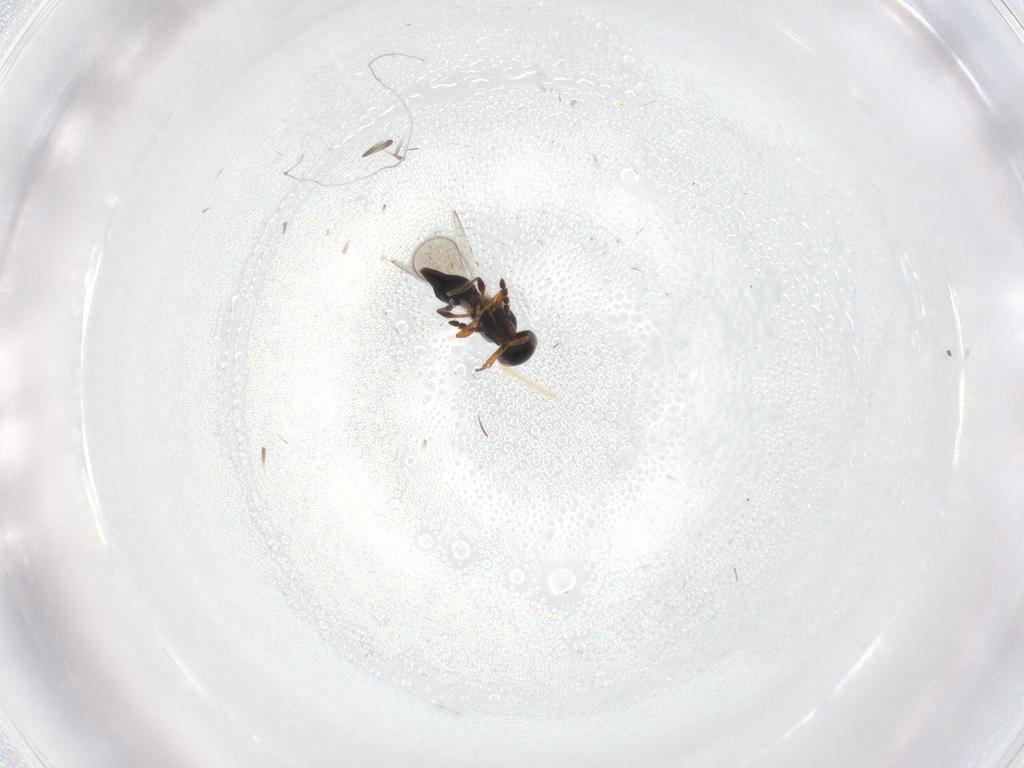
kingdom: Animalia
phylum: Arthropoda
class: Insecta
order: Hymenoptera
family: Platygastridae
